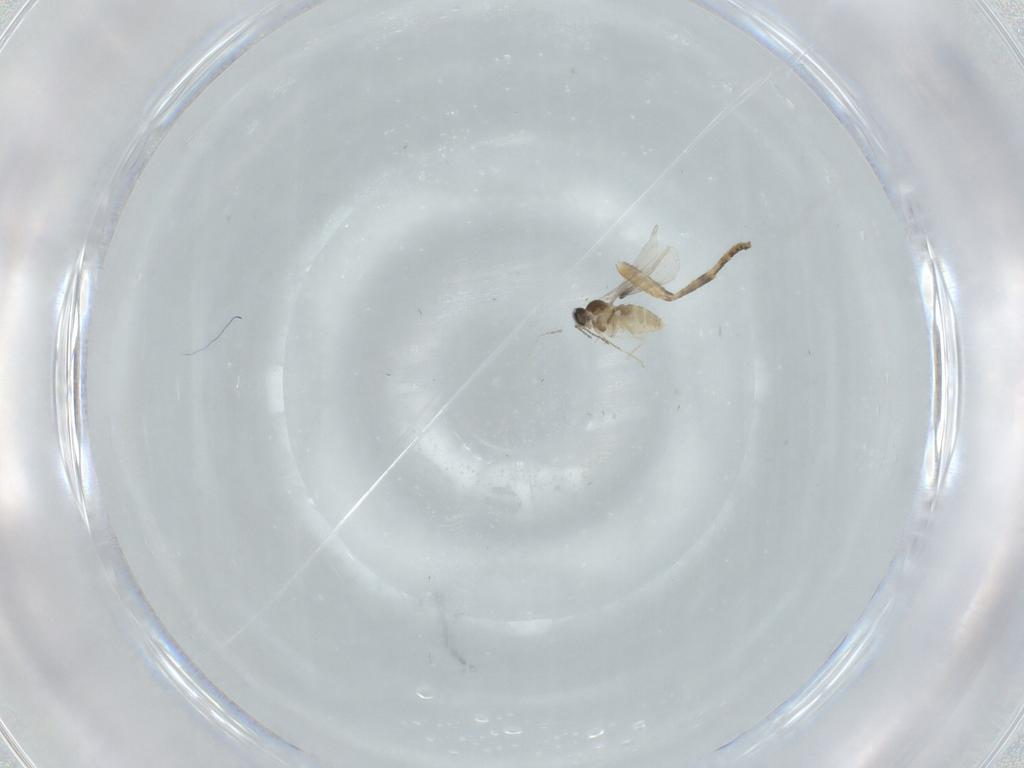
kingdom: Animalia
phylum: Arthropoda
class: Insecta
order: Diptera
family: Cecidomyiidae
